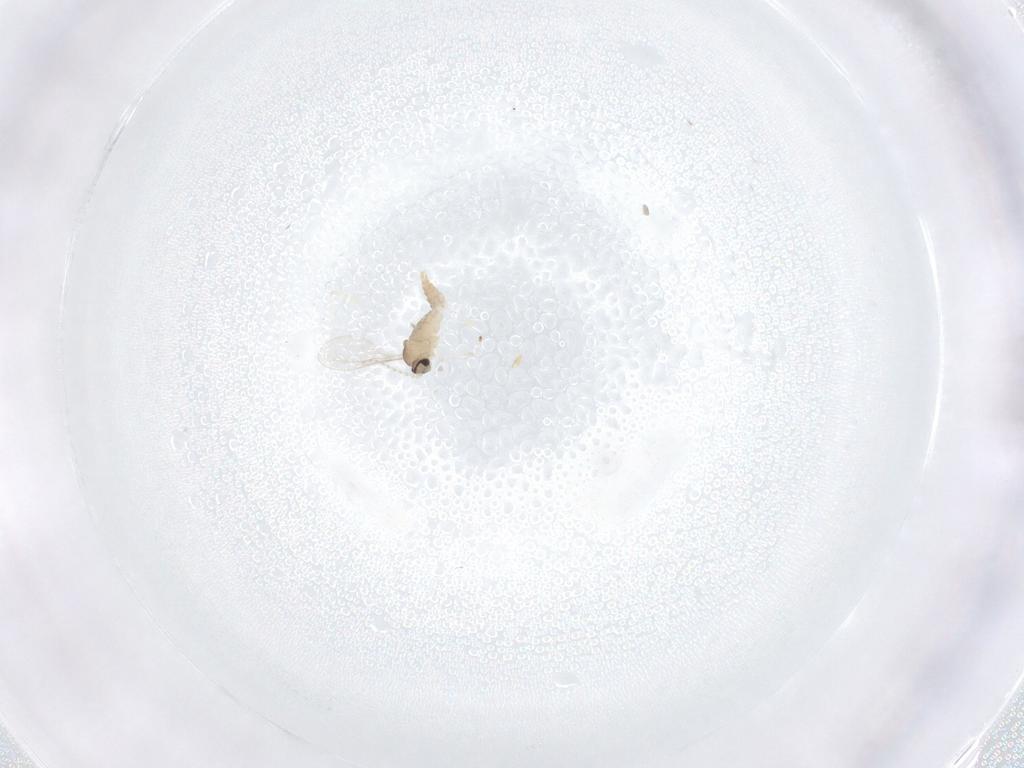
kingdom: Animalia
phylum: Arthropoda
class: Insecta
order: Diptera
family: Cecidomyiidae
